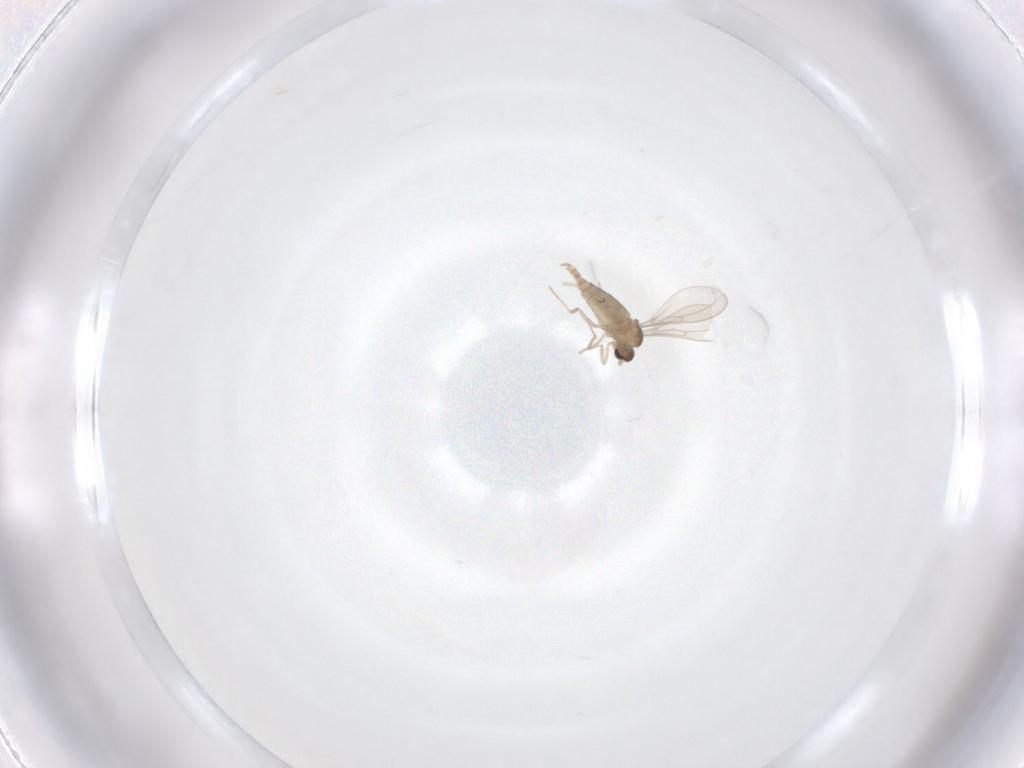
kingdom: Animalia
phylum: Arthropoda
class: Insecta
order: Diptera
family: Cecidomyiidae
